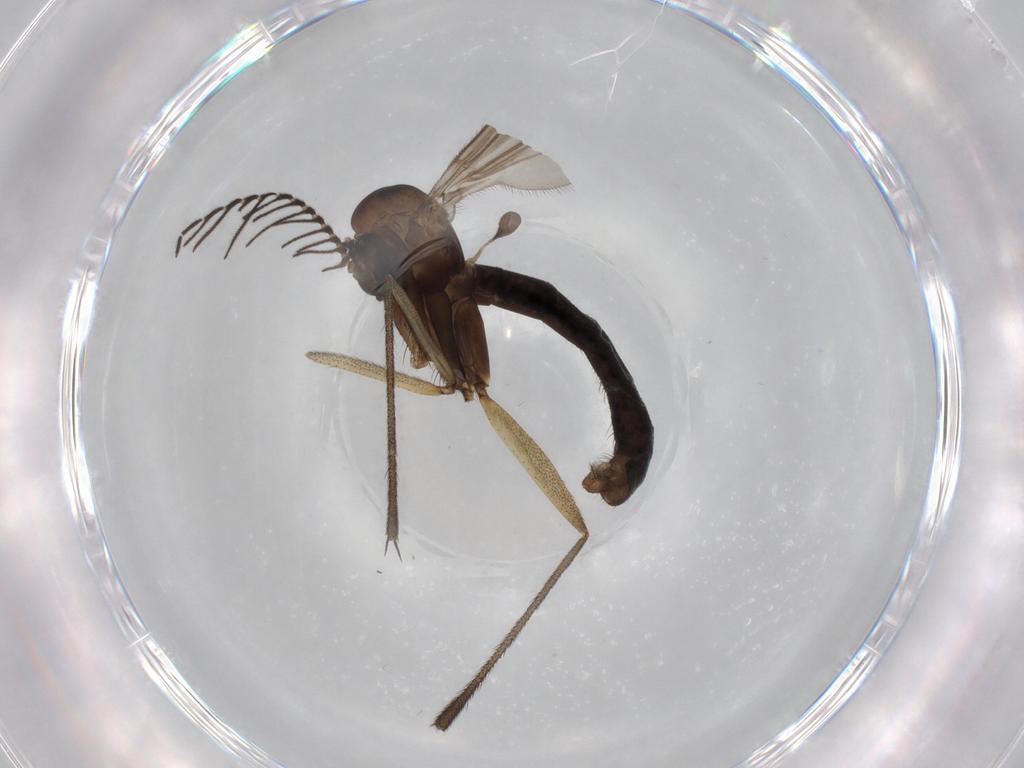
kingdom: Animalia
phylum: Arthropoda
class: Insecta
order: Diptera
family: Cecidomyiidae
